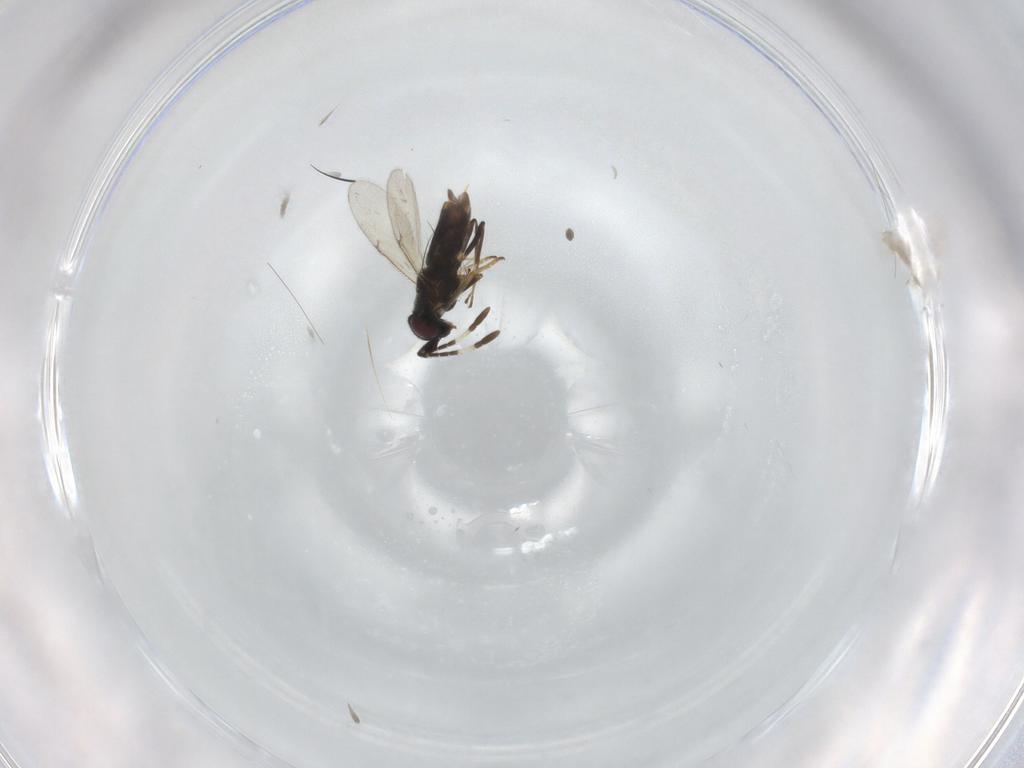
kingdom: Animalia
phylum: Arthropoda
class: Insecta
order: Hymenoptera
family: Encyrtidae
